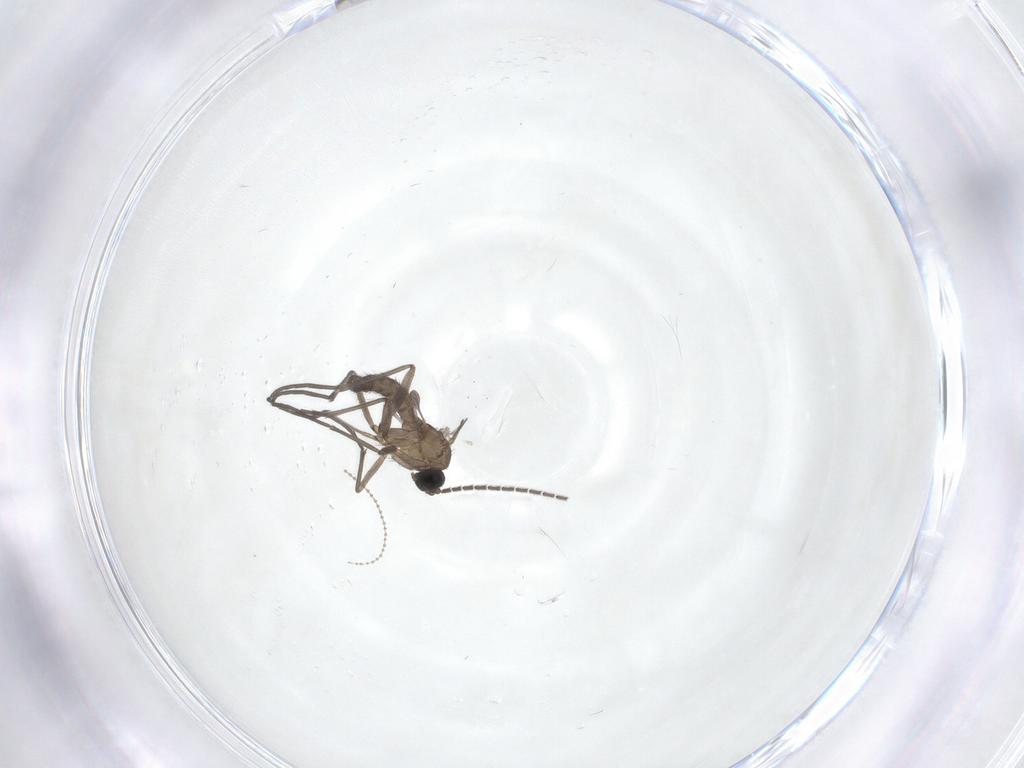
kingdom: Animalia
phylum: Arthropoda
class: Insecta
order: Diptera
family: Sciaridae
